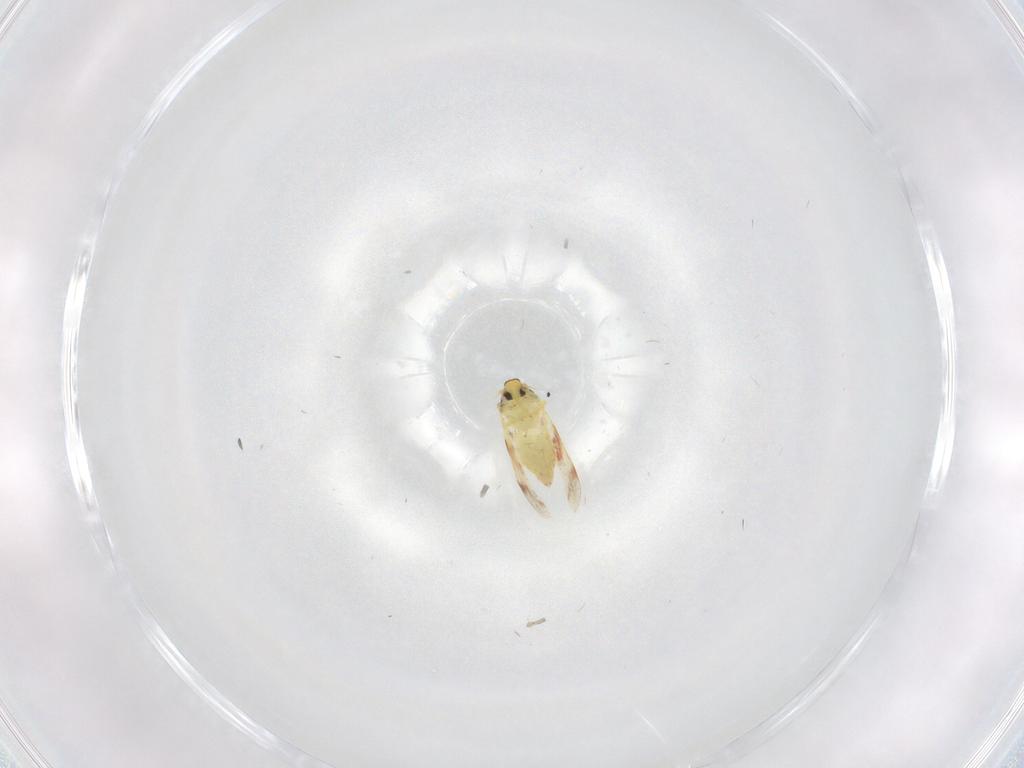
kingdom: Animalia
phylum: Arthropoda
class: Insecta
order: Hemiptera
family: Aleyrodidae
